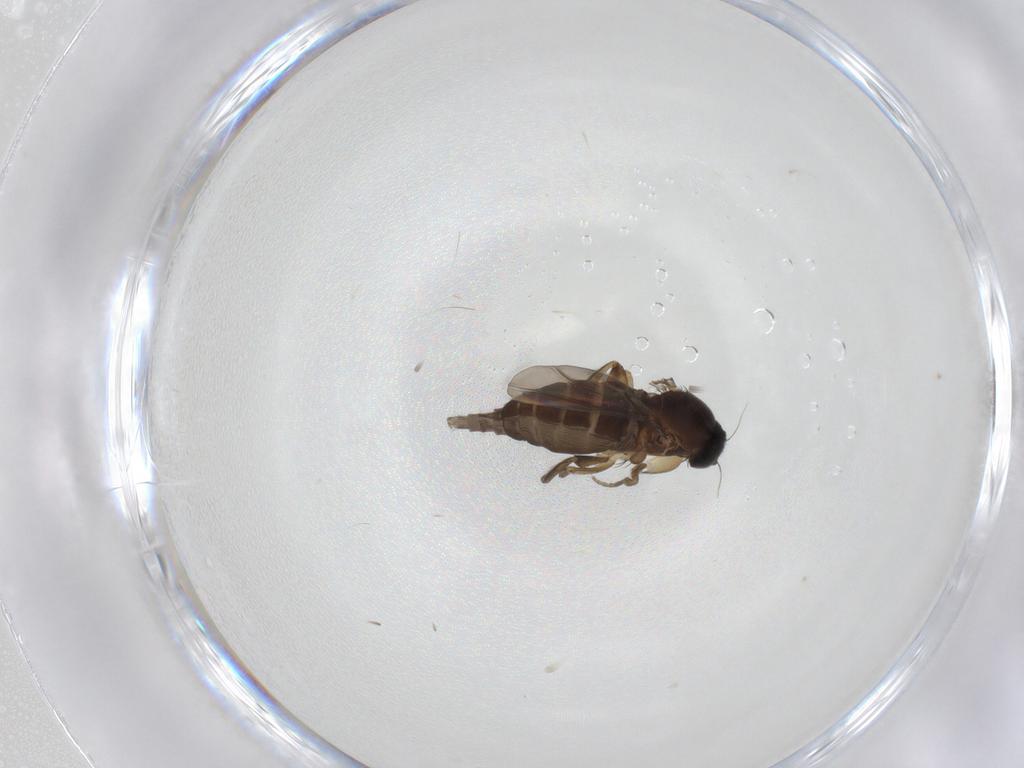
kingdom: Animalia
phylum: Arthropoda
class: Insecta
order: Diptera
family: Phoridae
